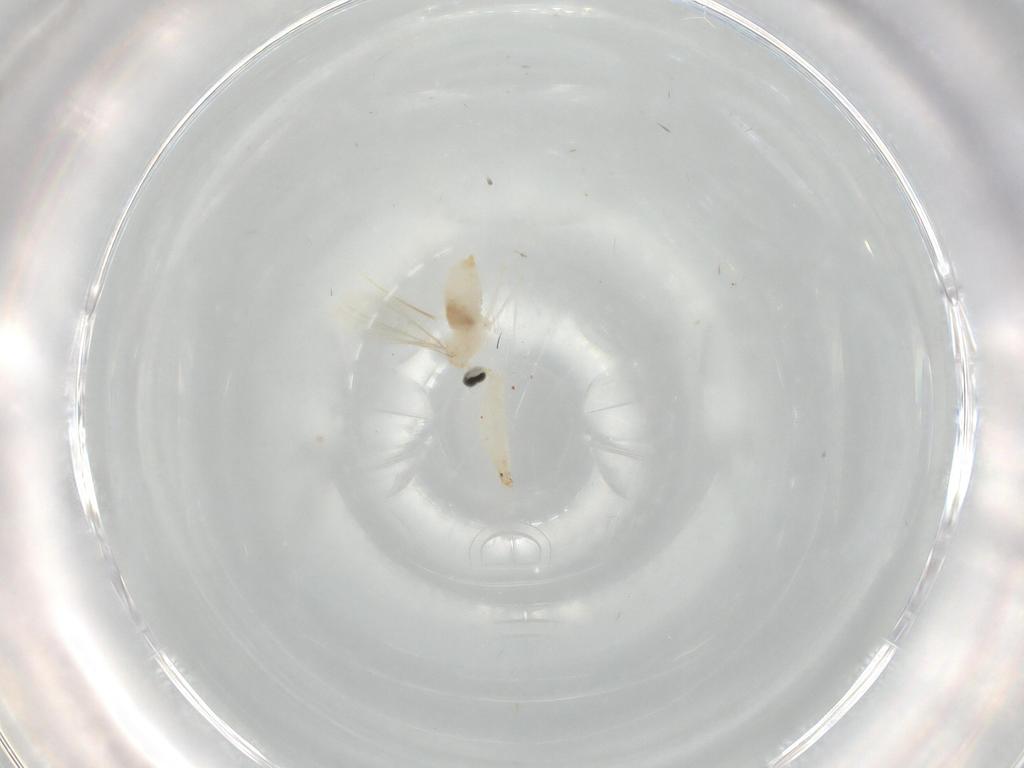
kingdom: Animalia
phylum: Arthropoda
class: Insecta
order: Diptera
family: Cecidomyiidae
